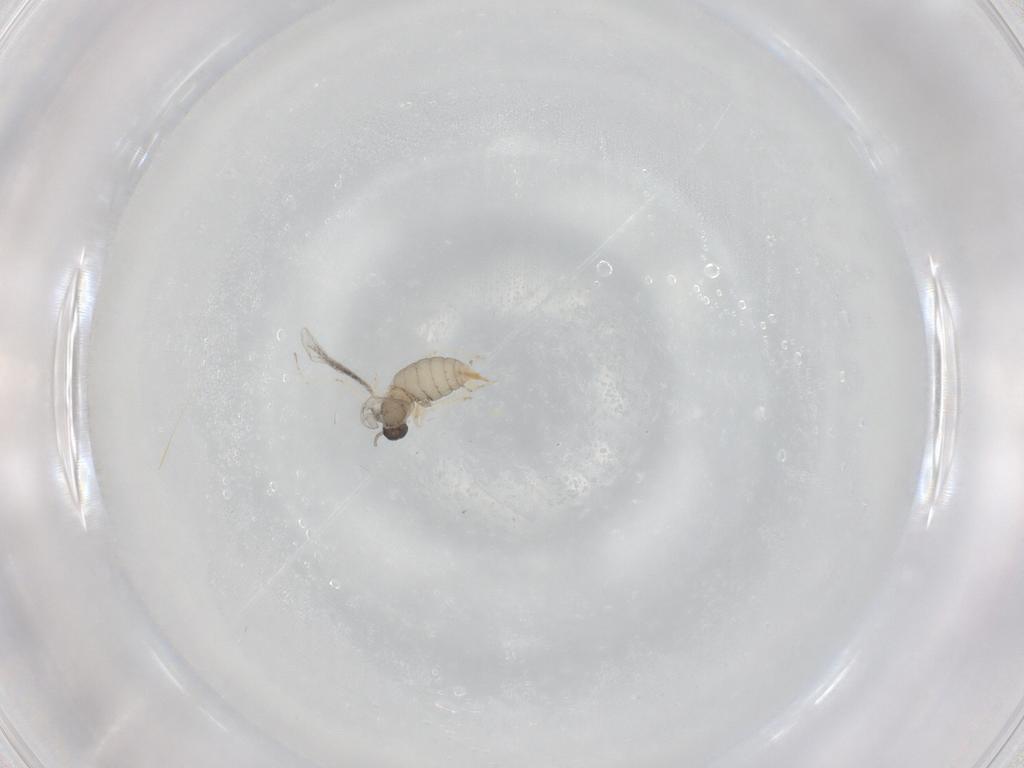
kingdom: Animalia
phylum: Arthropoda
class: Insecta
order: Diptera
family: Cecidomyiidae
